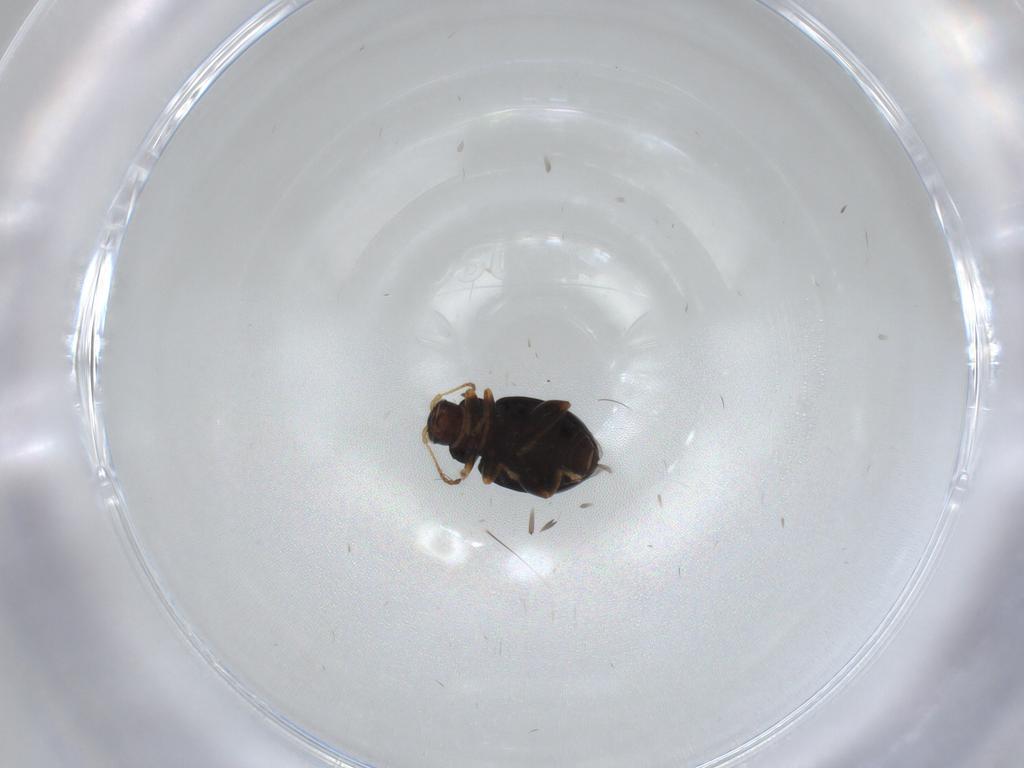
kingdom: Animalia
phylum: Arthropoda
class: Insecta
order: Coleoptera
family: Coccinellidae
